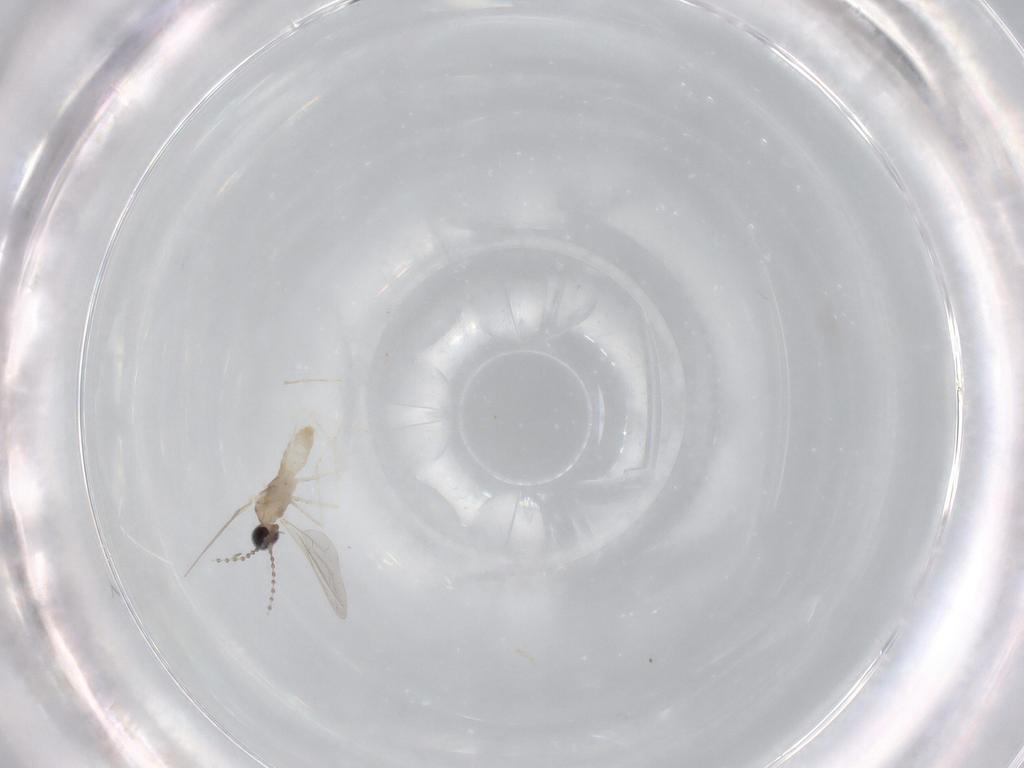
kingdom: Animalia
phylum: Arthropoda
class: Insecta
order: Diptera
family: Cecidomyiidae
